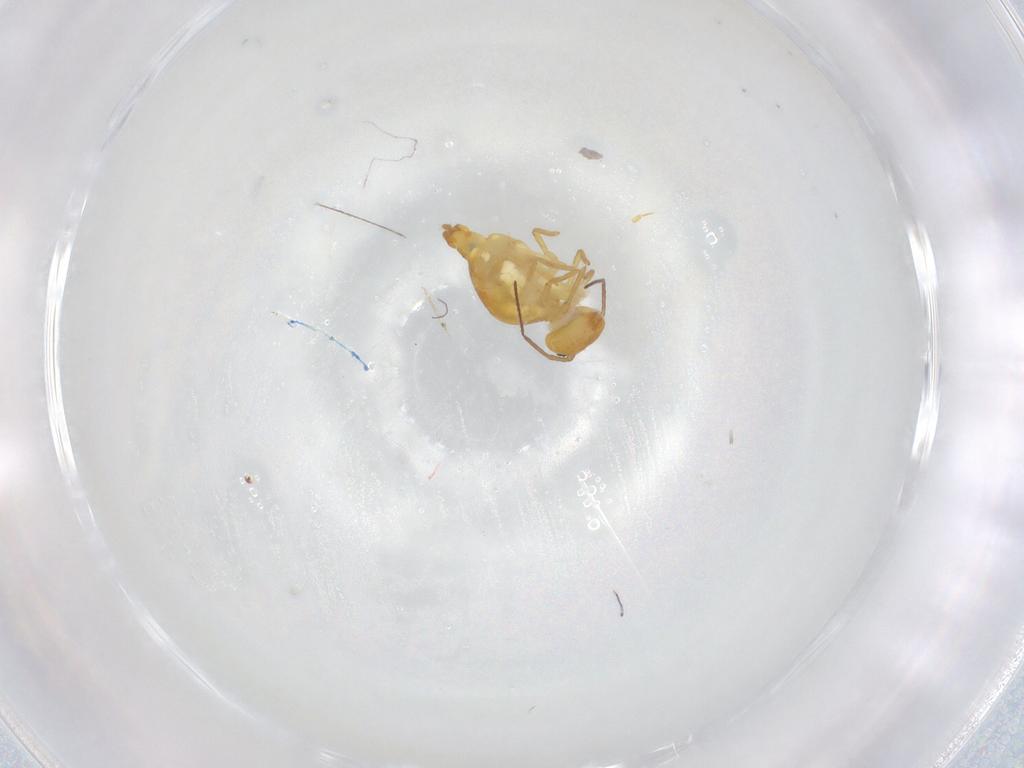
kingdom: Animalia
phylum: Arthropoda
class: Collembola
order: Symphypleona
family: Bourletiellidae
